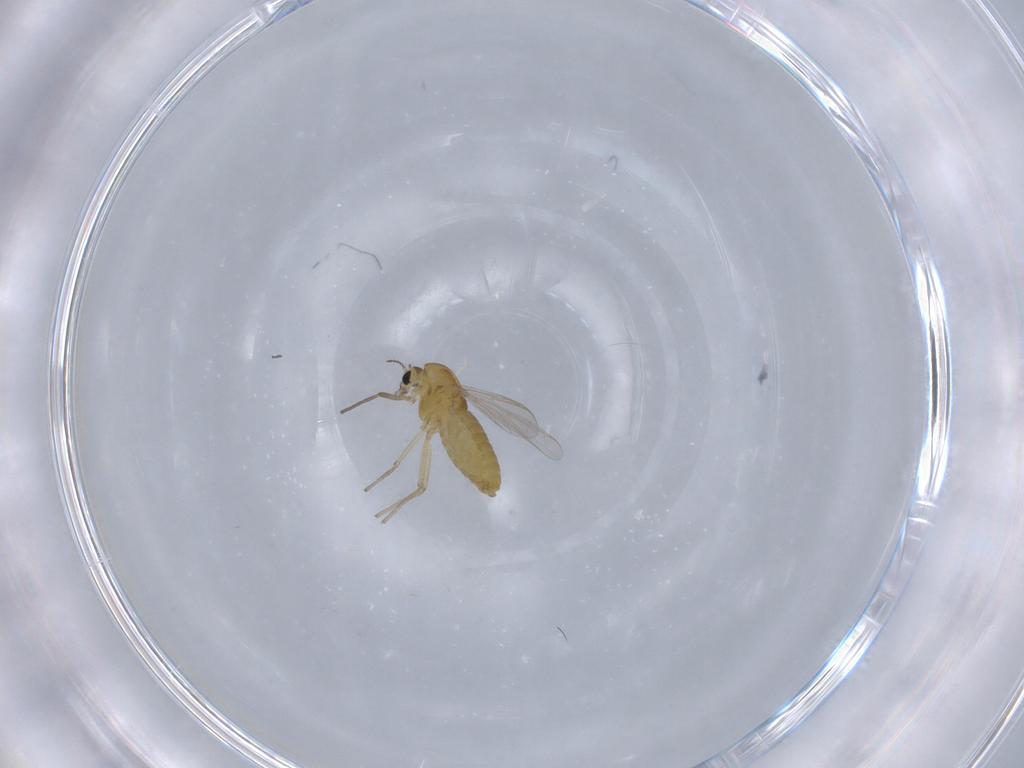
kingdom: Animalia
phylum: Arthropoda
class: Insecta
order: Diptera
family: Chironomidae
